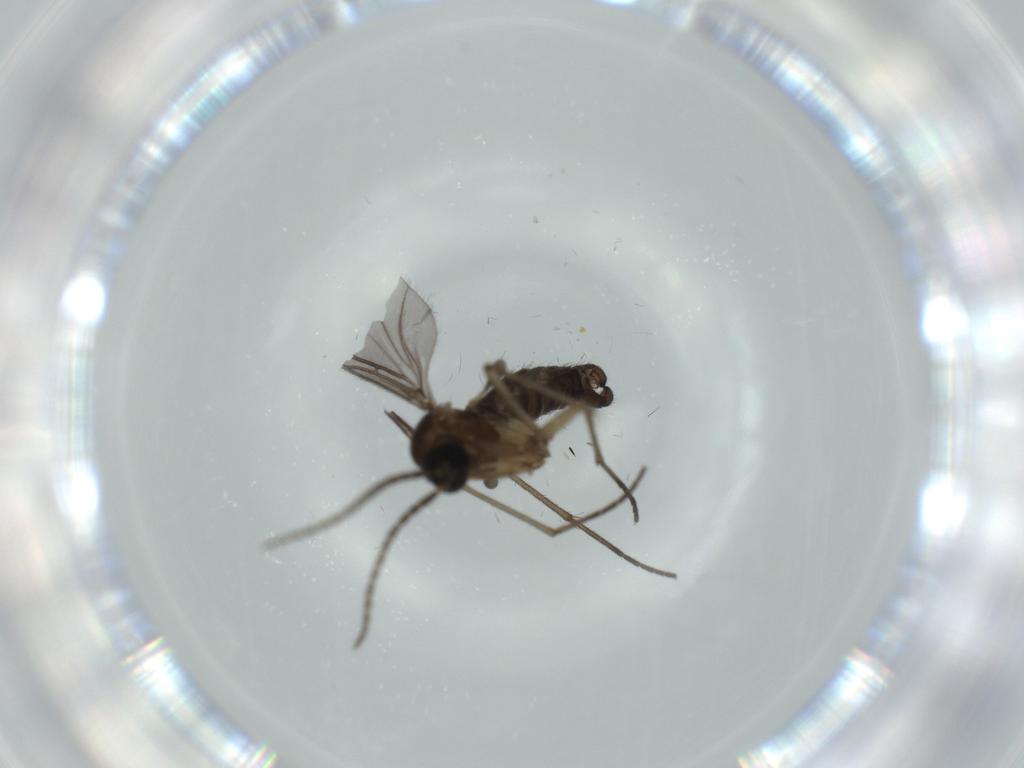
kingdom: Animalia
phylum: Arthropoda
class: Insecta
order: Diptera
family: Sciaridae
